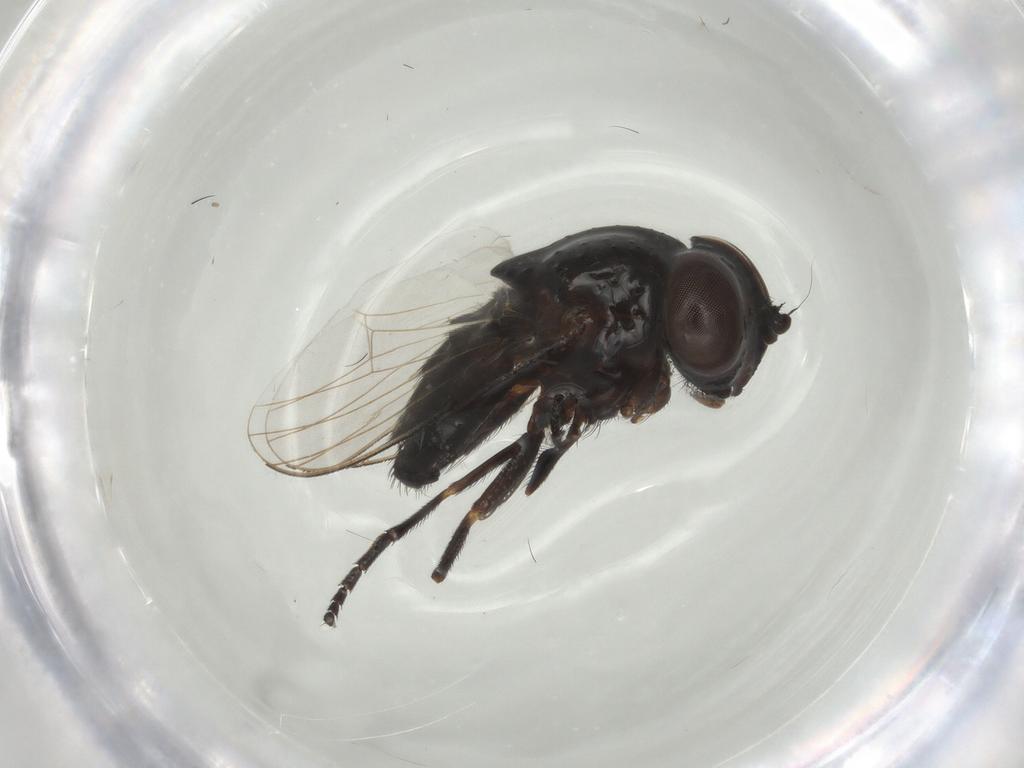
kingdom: Animalia
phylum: Arthropoda
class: Insecta
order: Diptera
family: Milichiidae
